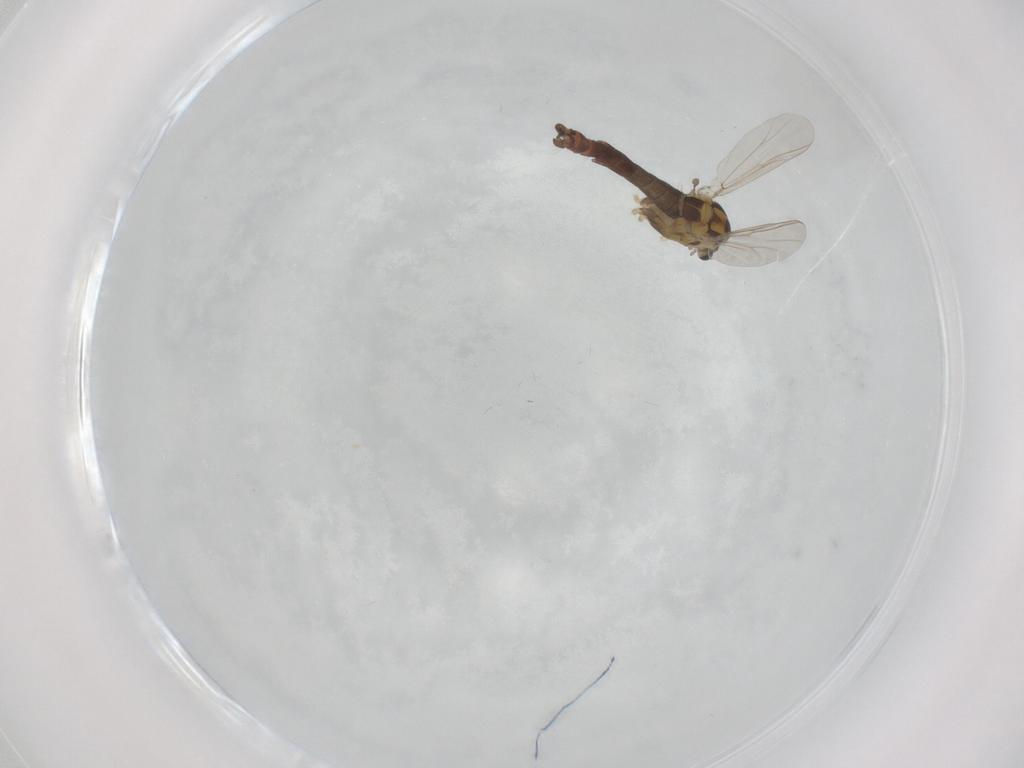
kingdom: Animalia
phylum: Arthropoda
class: Insecta
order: Diptera
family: Chironomidae
